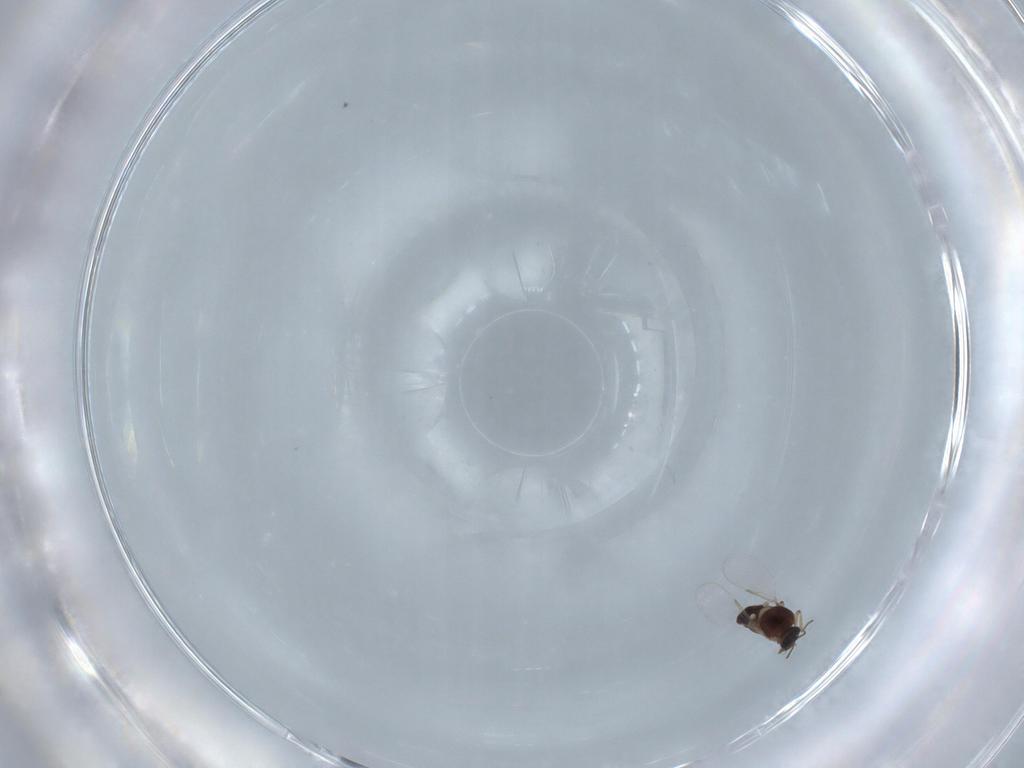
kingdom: Animalia
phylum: Arthropoda
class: Insecta
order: Diptera
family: Ceratopogonidae
